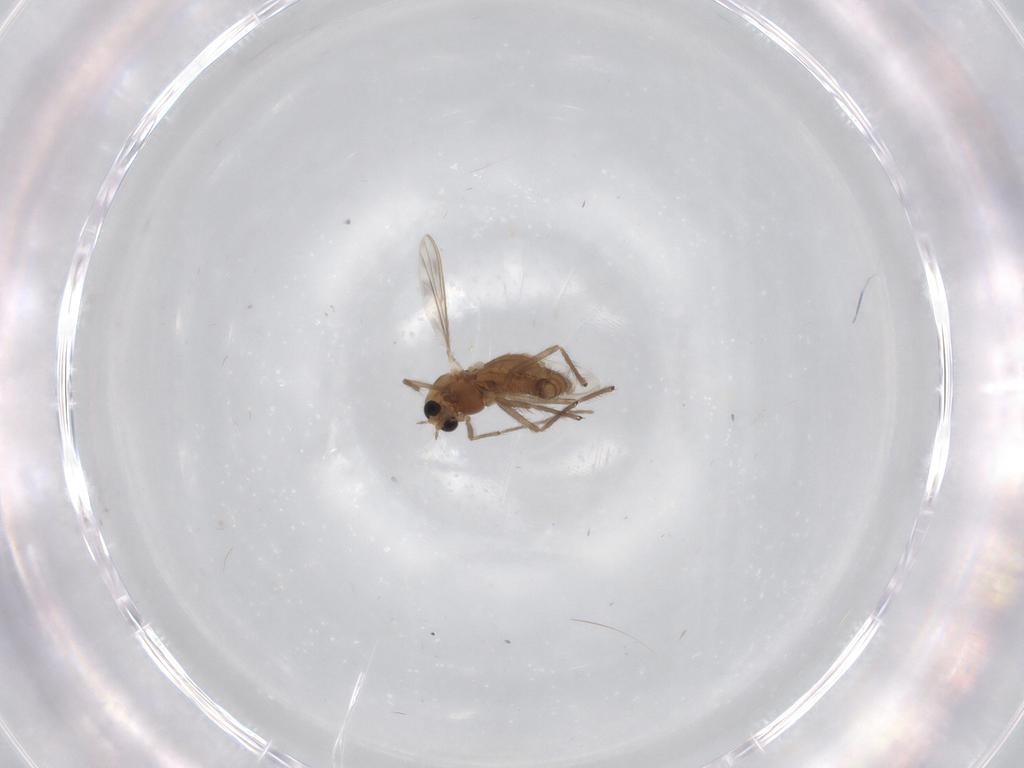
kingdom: Animalia
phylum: Arthropoda
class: Insecta
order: Diptera
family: Chironomidae
